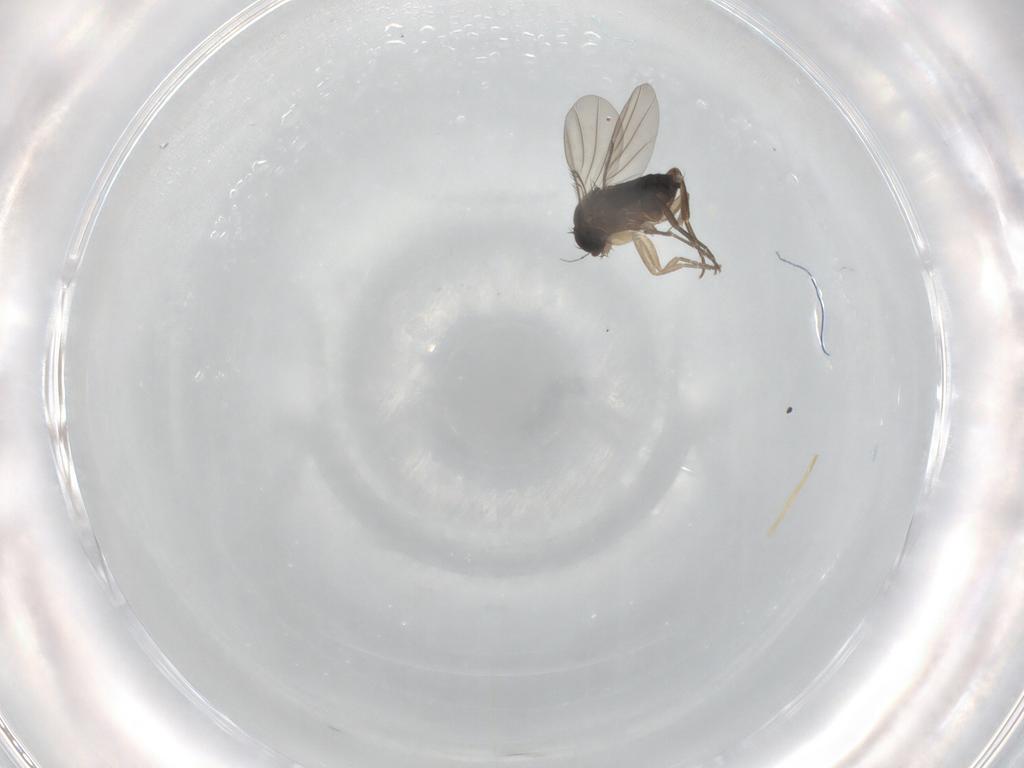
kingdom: Animalia
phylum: Arthropoda
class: Insecta
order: Diptera
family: Phoridae
